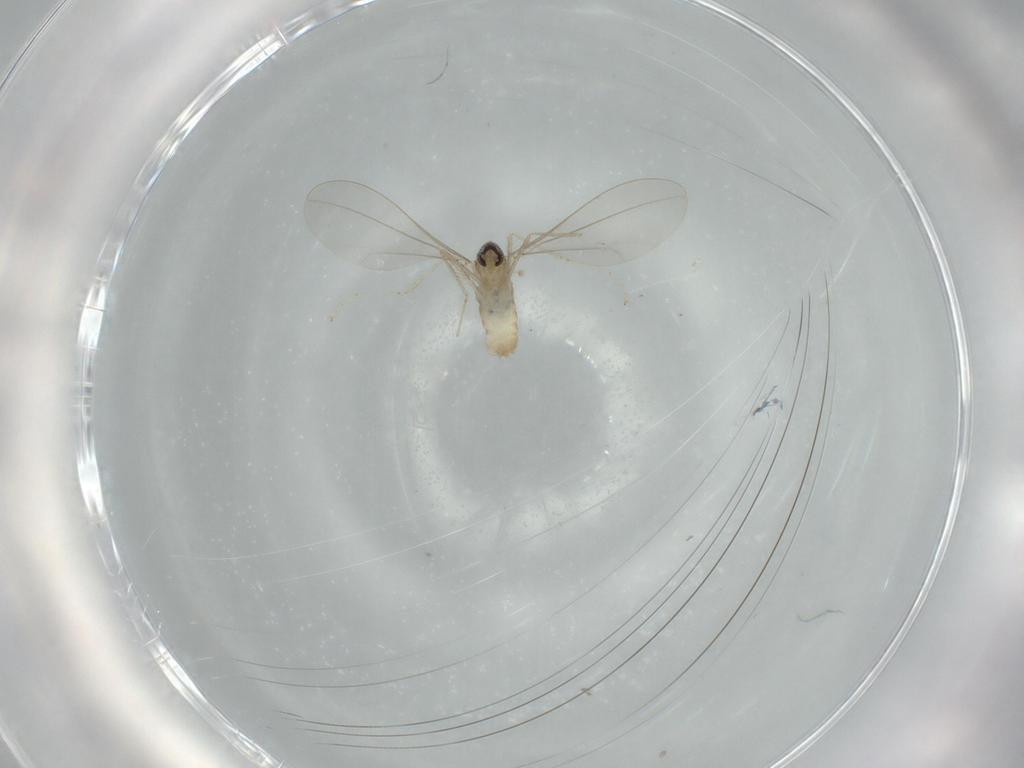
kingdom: Animalia
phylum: Arthropoda
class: Insecta
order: Diptera
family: Cecidomyiidae
